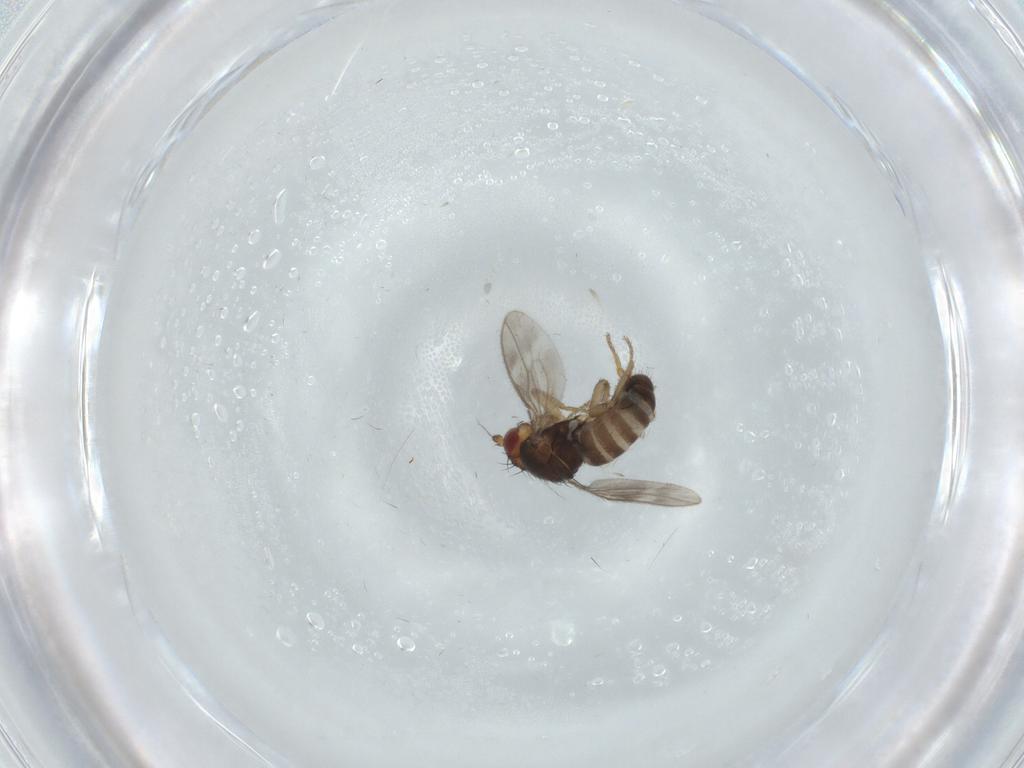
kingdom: Animalia
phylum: Arthropoda
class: Insecta
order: Diptera
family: Sphaeroceridae
